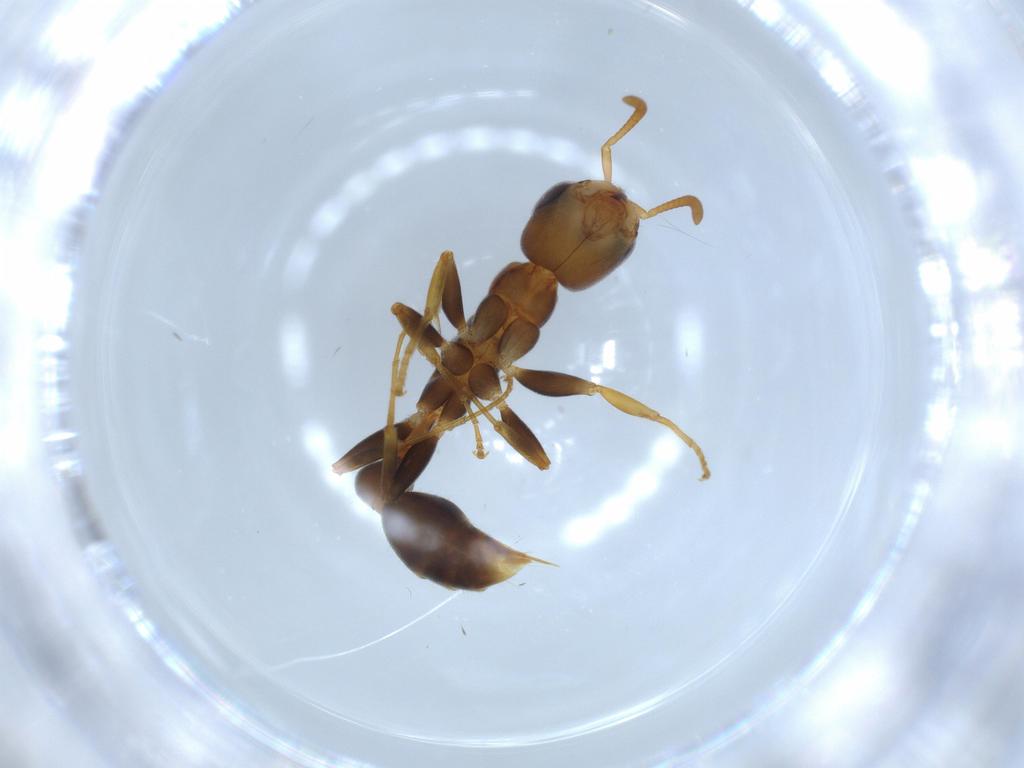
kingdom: Animalia
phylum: Arthropoda
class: Insecta
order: Hymenoptera
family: Formicidae
